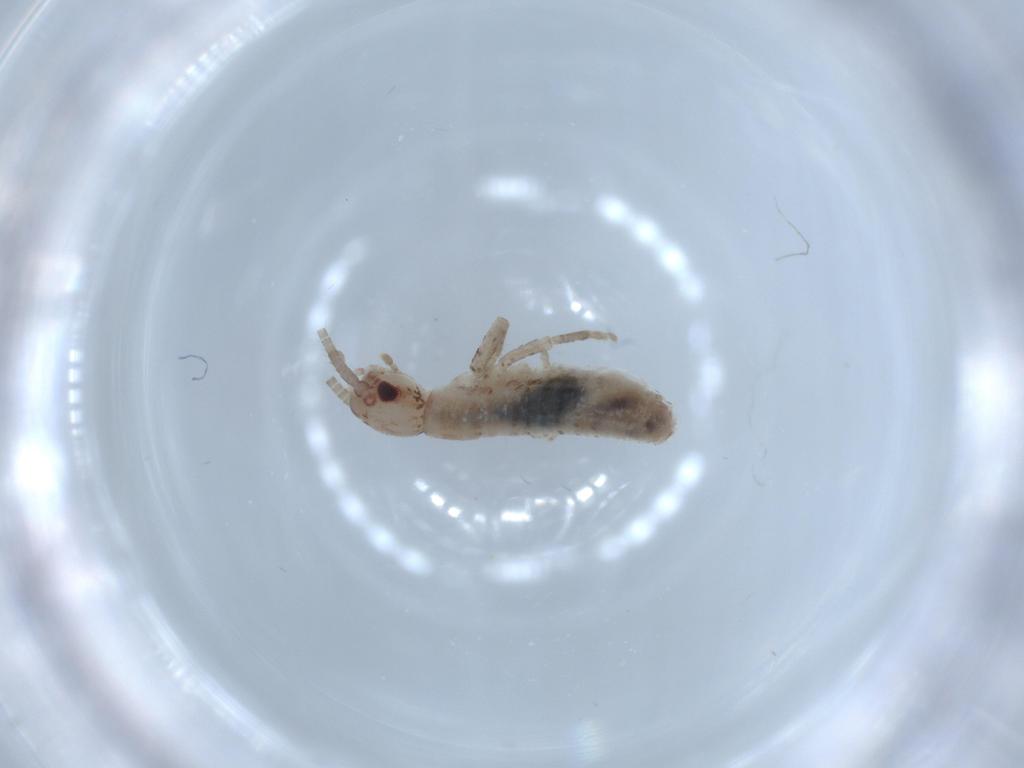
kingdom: Animalia
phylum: Arthropoda
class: Insecta
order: Orthoptera
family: Mogoplistidae
